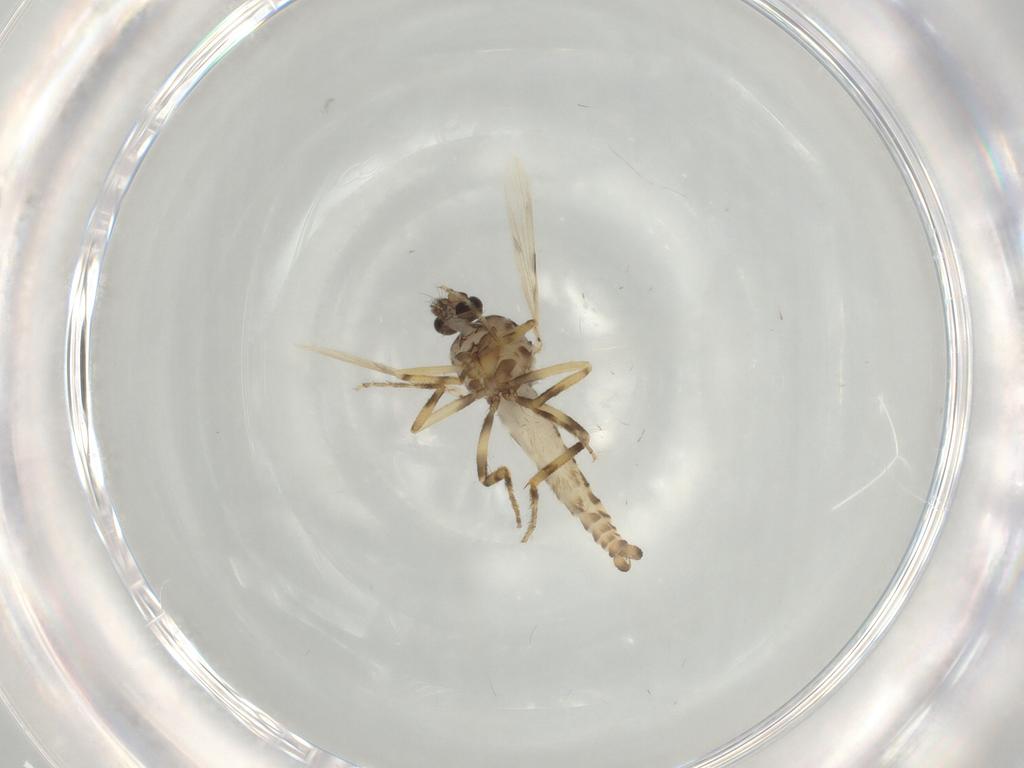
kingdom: Animalia
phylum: Arthropoda
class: Insecta
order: Diptera
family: Ceratopogonidae
